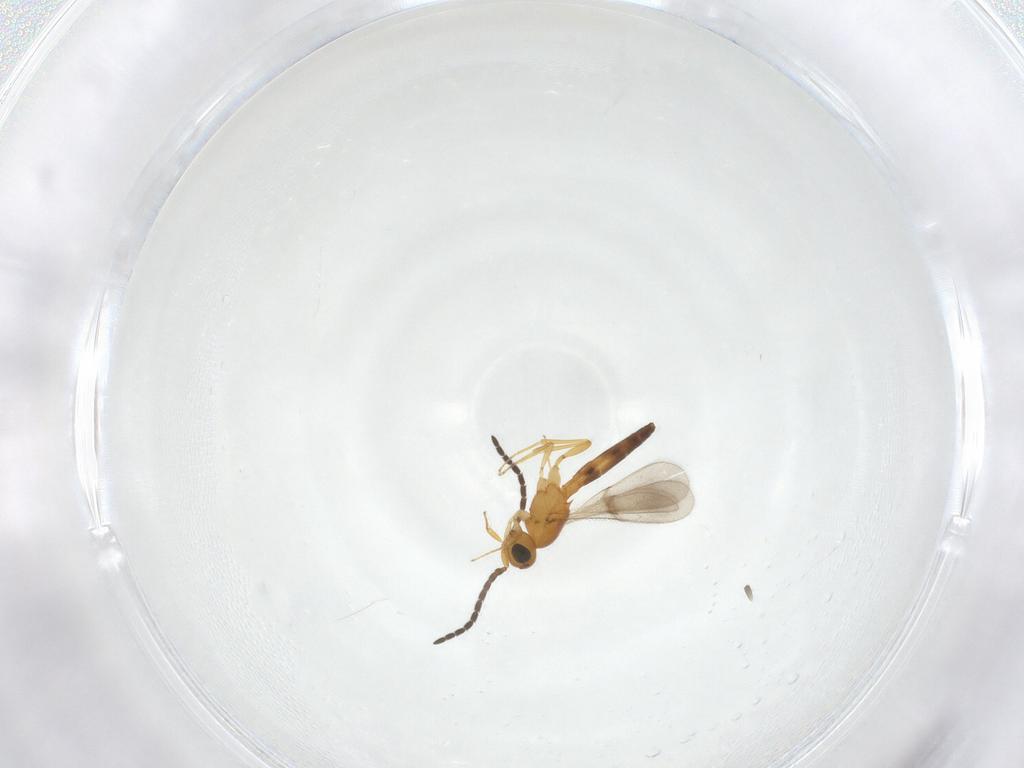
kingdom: Animalia
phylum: Arthropoda
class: Insecta
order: Hymenoptera
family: Scelionidae
